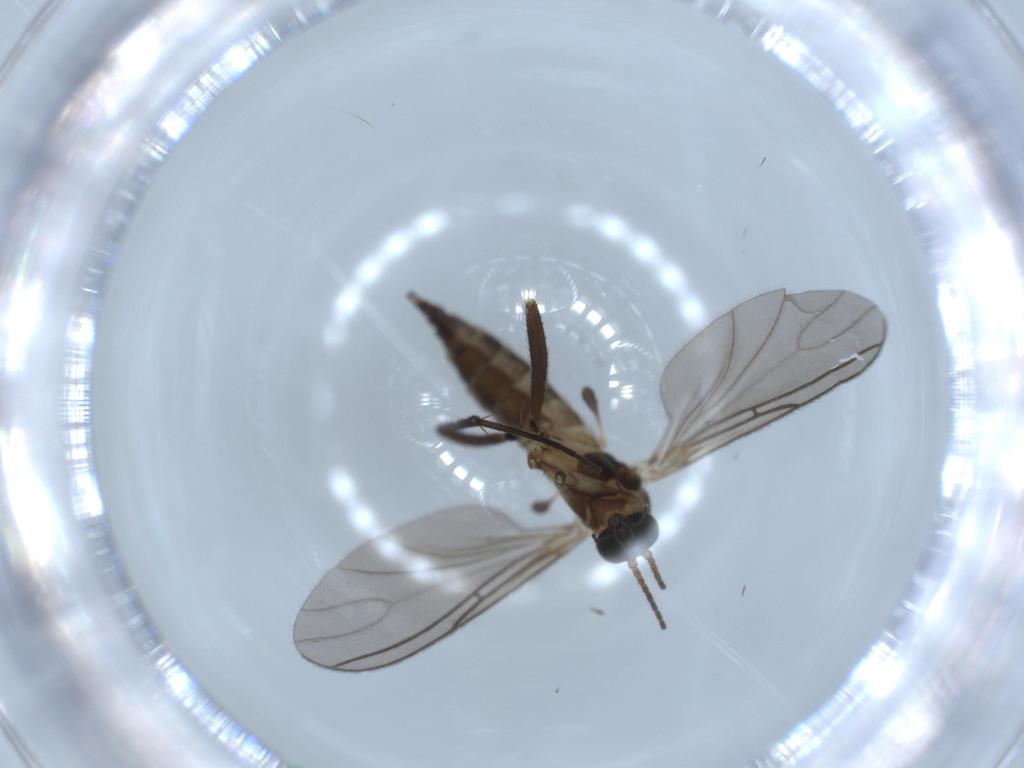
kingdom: Animalia
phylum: Arthropoda
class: Insecta
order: Diptera
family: Sciaridae
